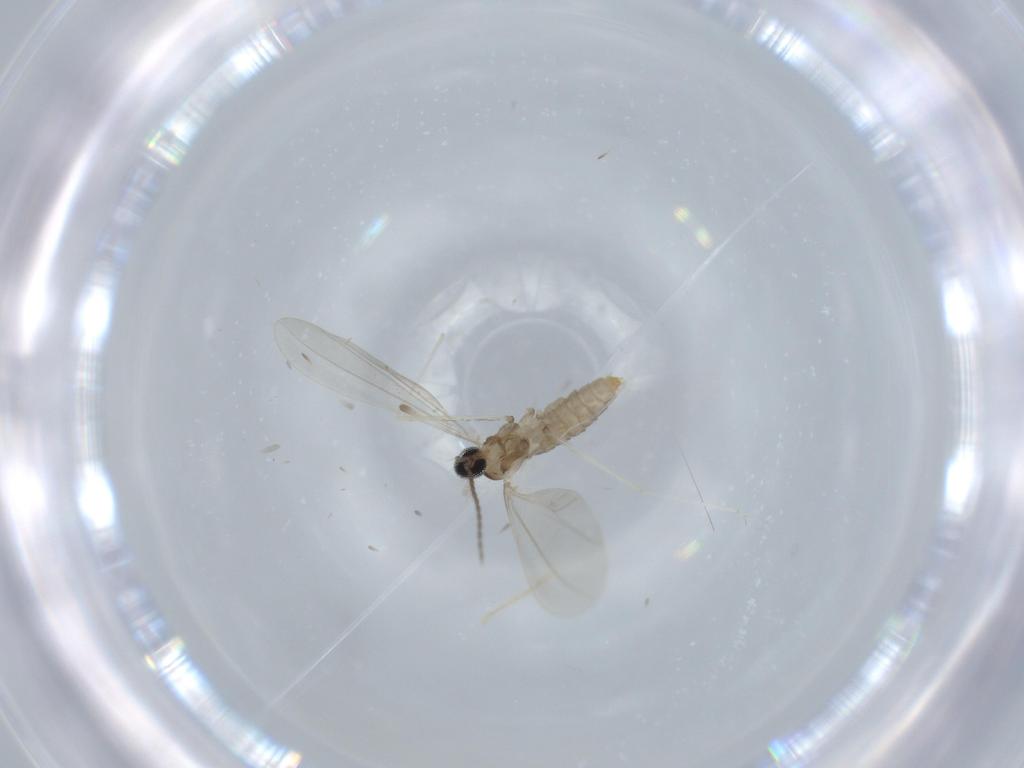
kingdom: Animalia
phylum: Arthropoda
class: Insecta
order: Diptera
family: Cecidomyiidae
